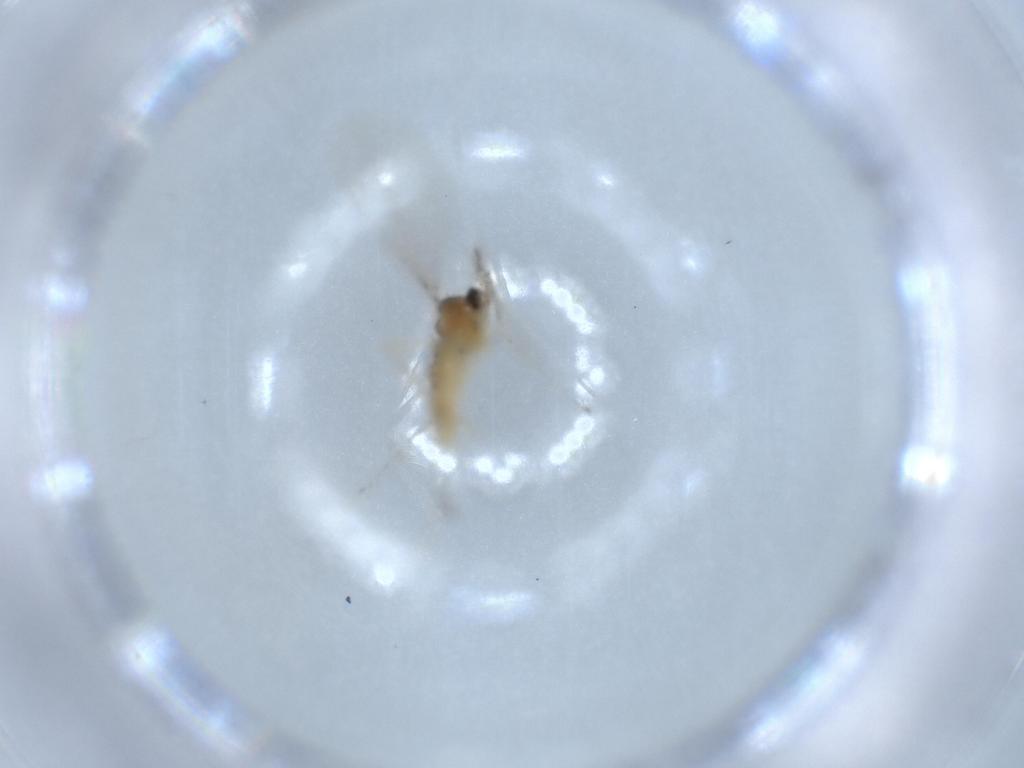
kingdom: Animalia
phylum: Arthropoda
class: Insecta
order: Diptera
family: Cecidomyiidae
